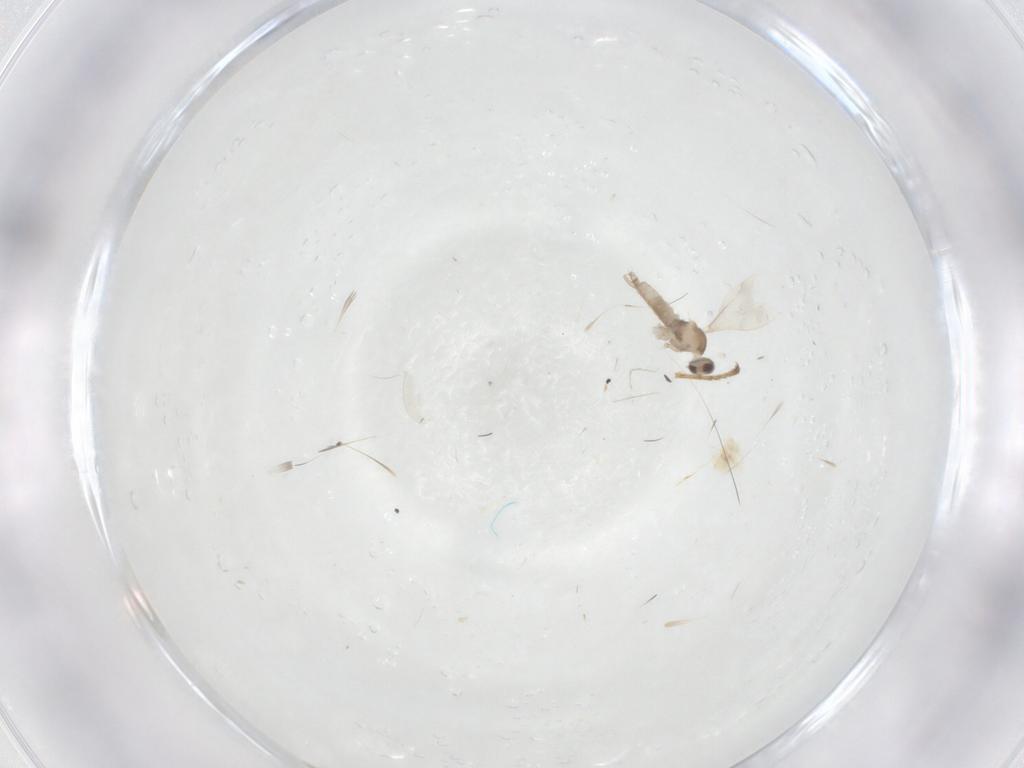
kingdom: Animalia
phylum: Arthropoda
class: Insecta
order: Diptera
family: Cecidomyiidae
